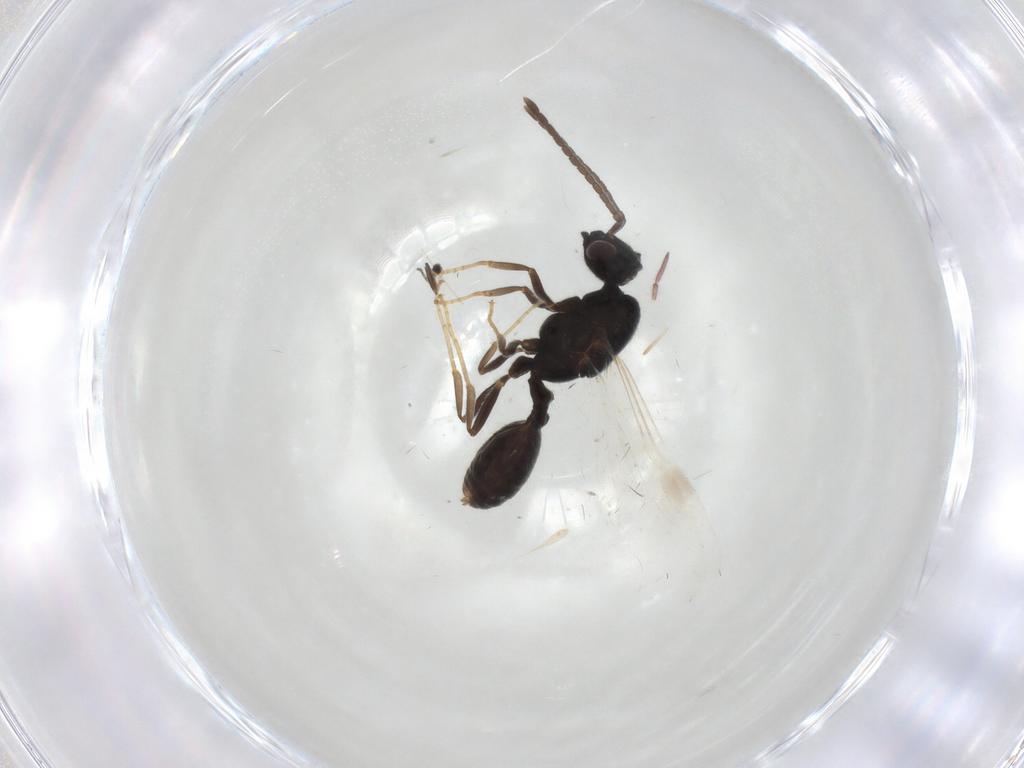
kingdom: Animalia
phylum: Arthropoda
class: Insecta
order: Hymenoptera
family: Formicidae
